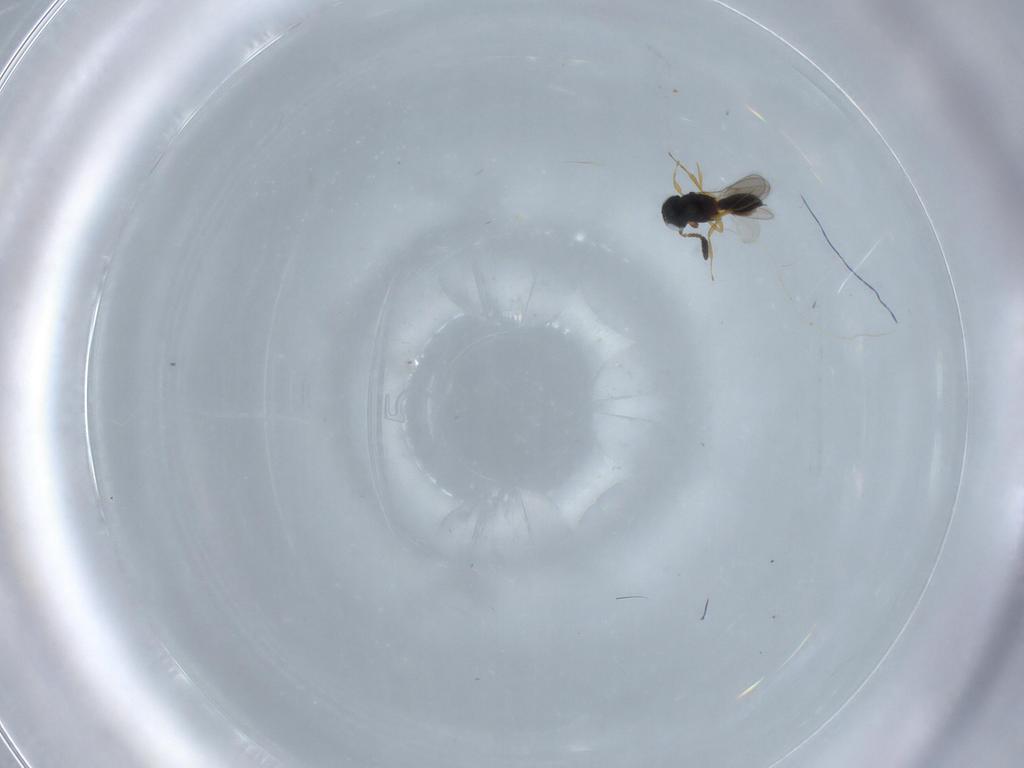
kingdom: Animalia
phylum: Arthropoda
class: Insecta
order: Hymenoptera
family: Scelionidae
